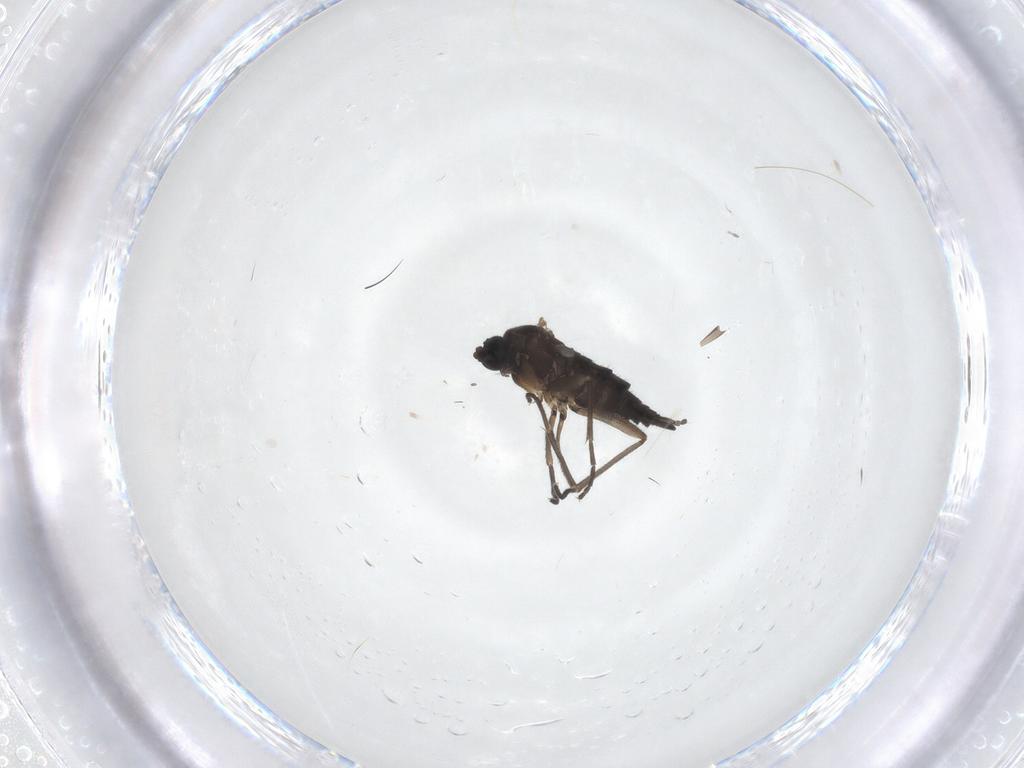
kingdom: Animalia
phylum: Arthropoda
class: Insecta
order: Diptera
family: Sciaridae
